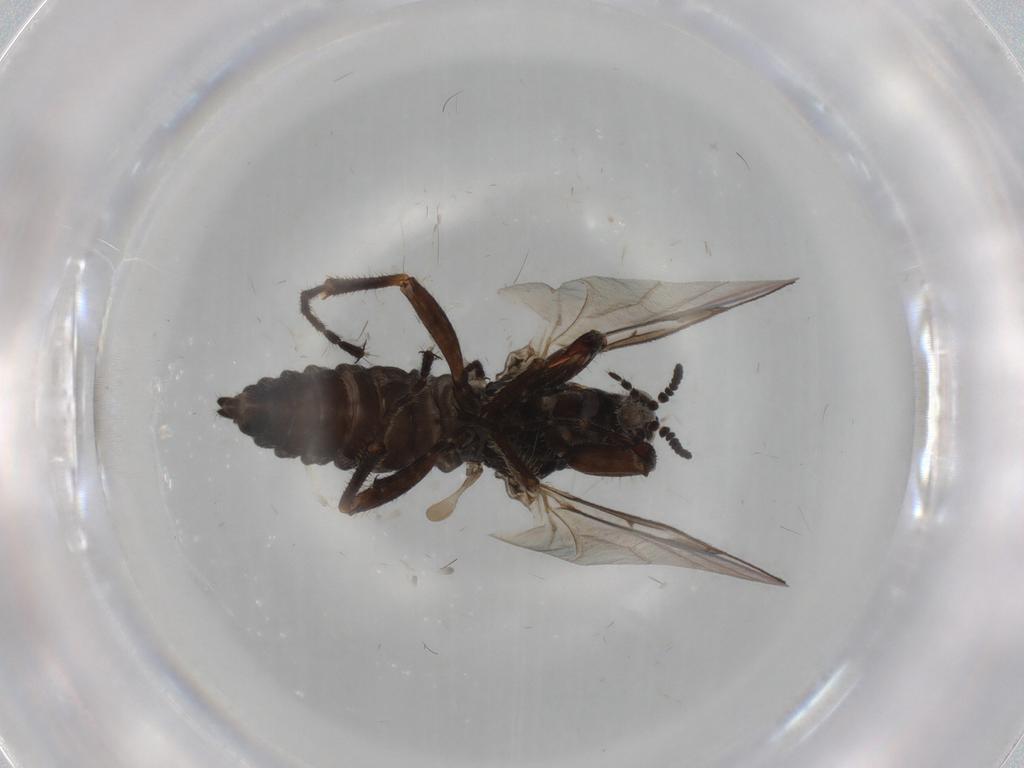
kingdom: Animalia
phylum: Arthropoda
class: Insecta
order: Diptera
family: Bibionidae
